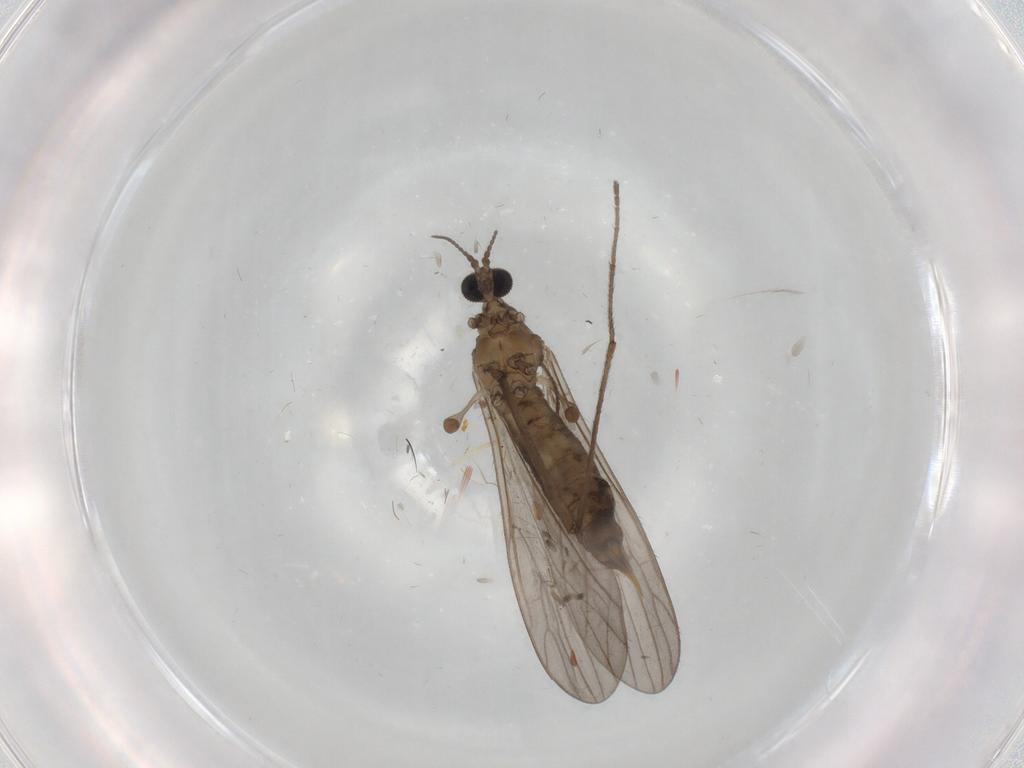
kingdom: Animalia
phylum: Arthropoda
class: Insecta
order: Diptera
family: Limoniidae
